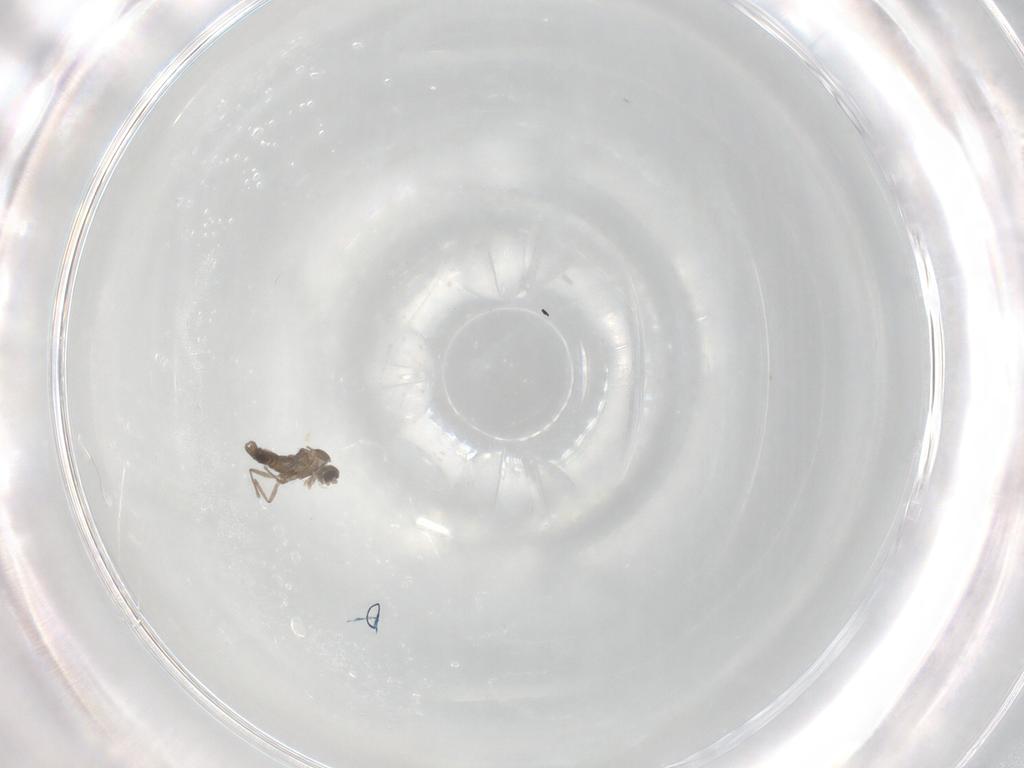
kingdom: Animalia
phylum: Arthropoda
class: Insecta
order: Diptera
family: Cecidomyiidae
